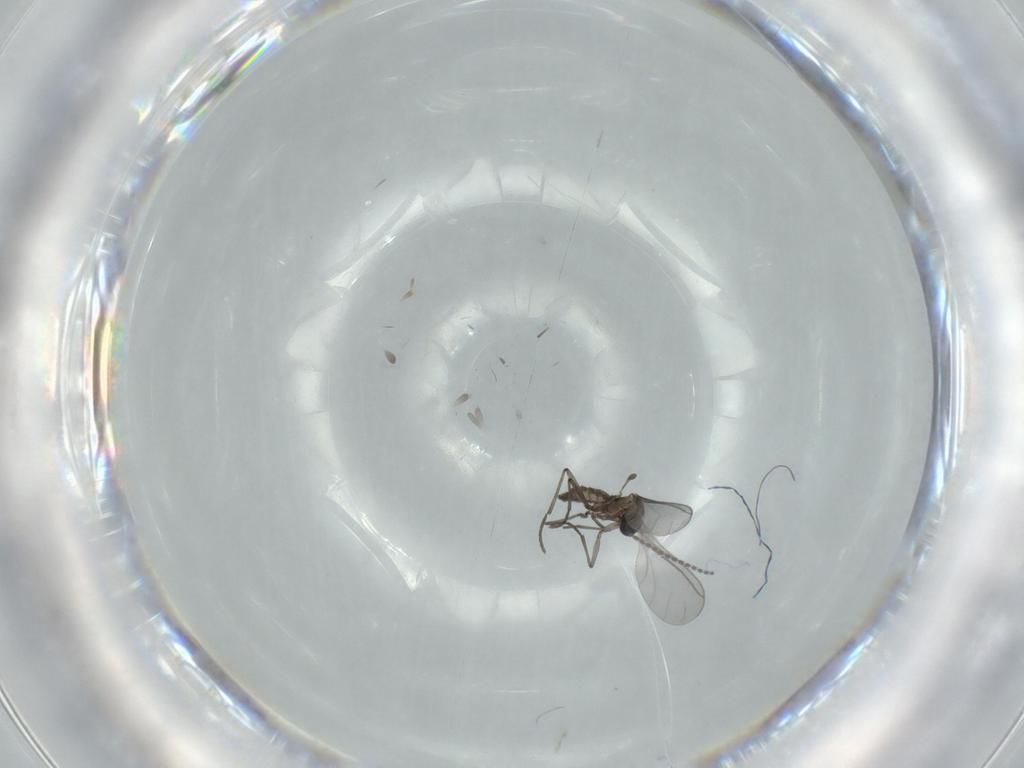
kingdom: Animalia
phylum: Arthropoda
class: Insecta
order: Diptera
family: Sciaridae
